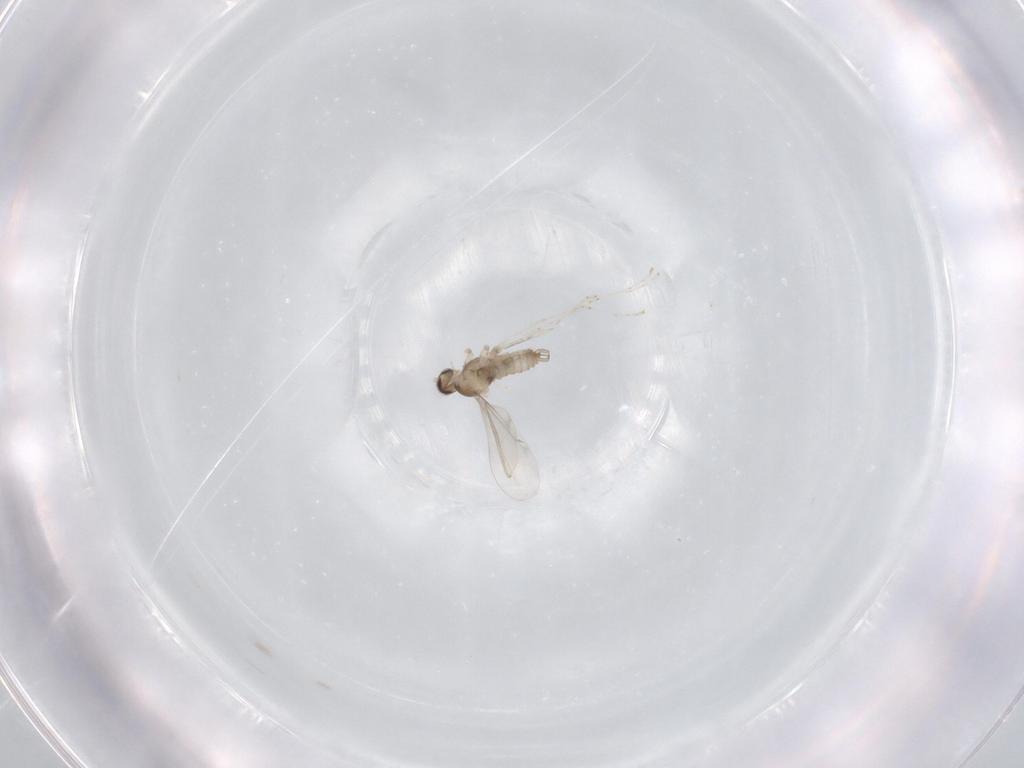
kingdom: Animalia
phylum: Arthropoda
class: Insecta
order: Diptera
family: Cecidomyiidae
